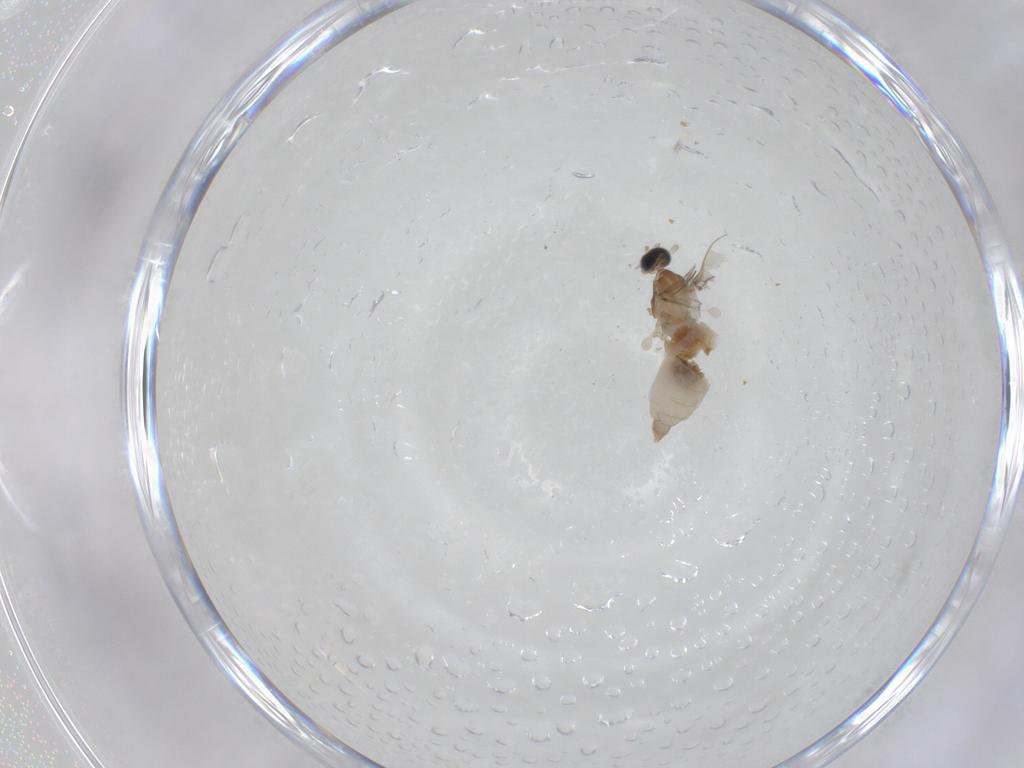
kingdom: Animalia
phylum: Arthropoda
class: Insecta
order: Diptera
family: Cecidomyiidae
